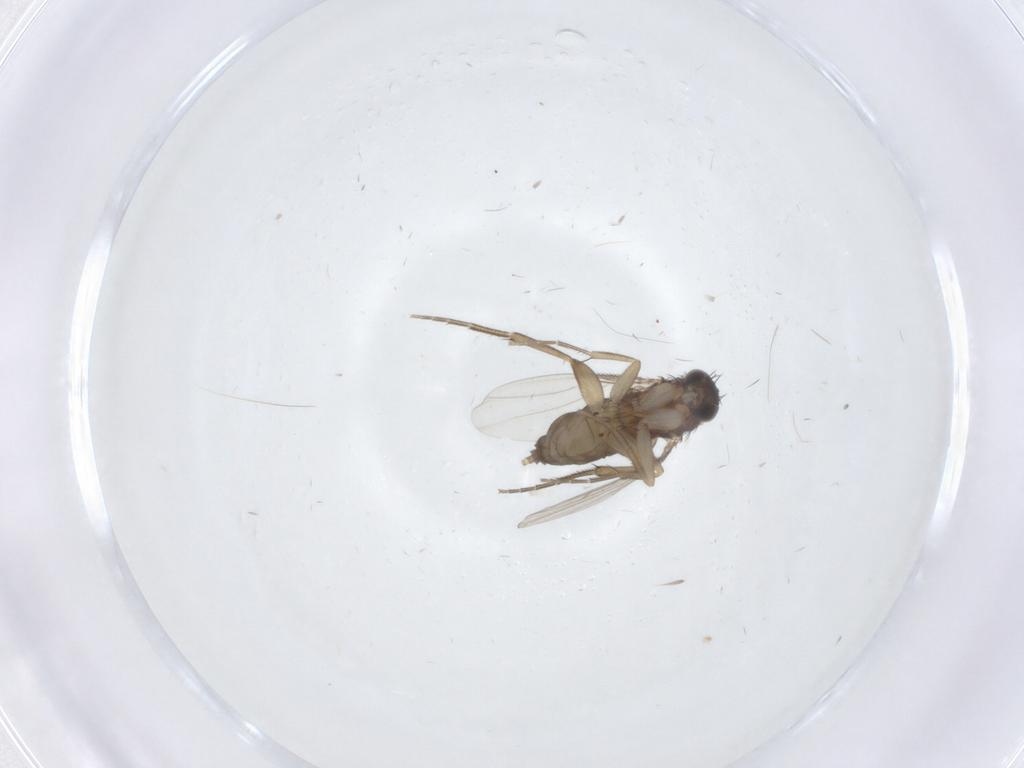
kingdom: Animalia
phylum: Arthropoda
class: Insecta
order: Diptera
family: Phoridae
